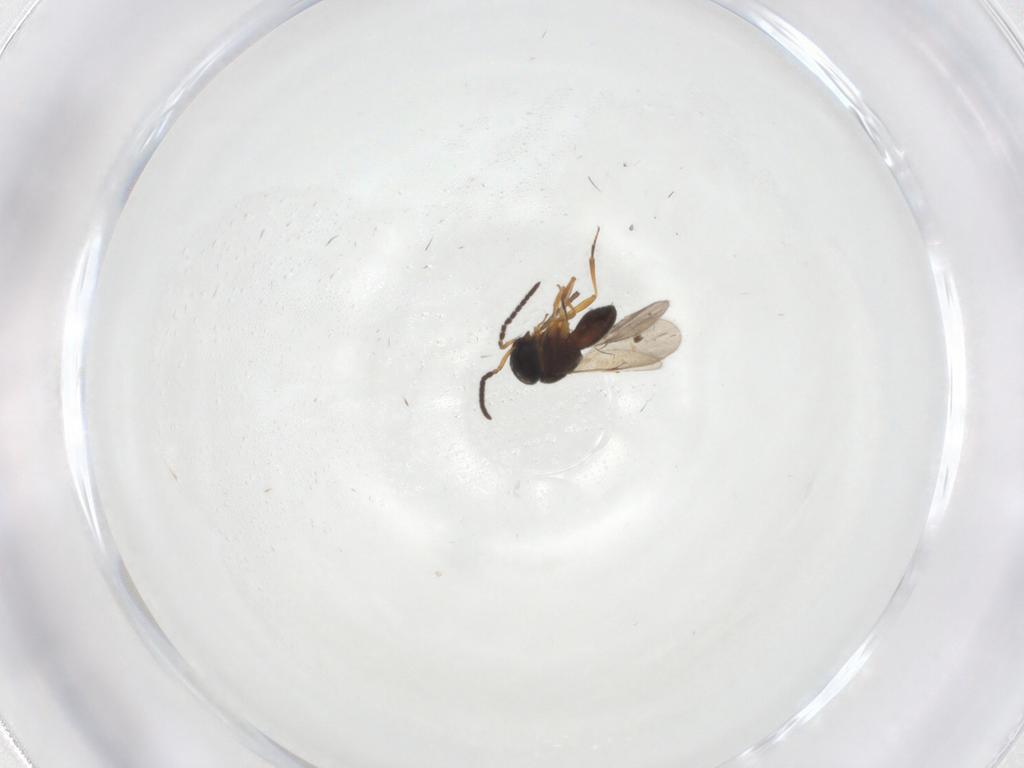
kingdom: Animalia
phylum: Arthropoda
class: Insecta
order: Hymenoptera
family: Scelionidae
